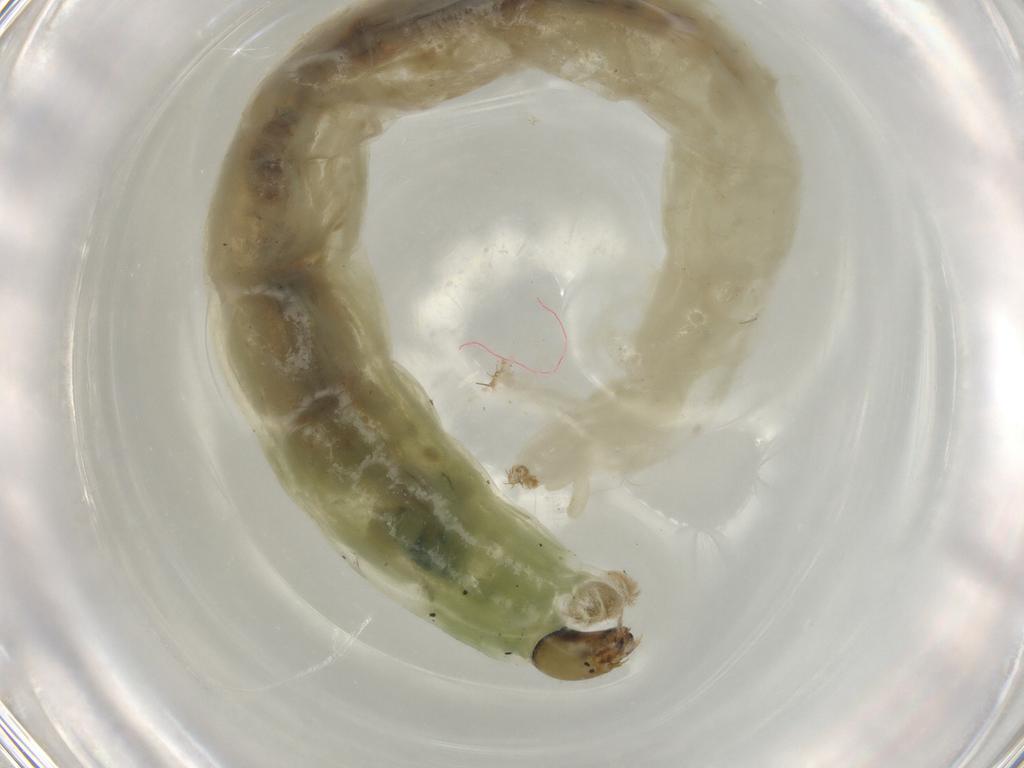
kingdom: Animalia
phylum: Arthropoda
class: Insecta
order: Diptera
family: Chironomidae
